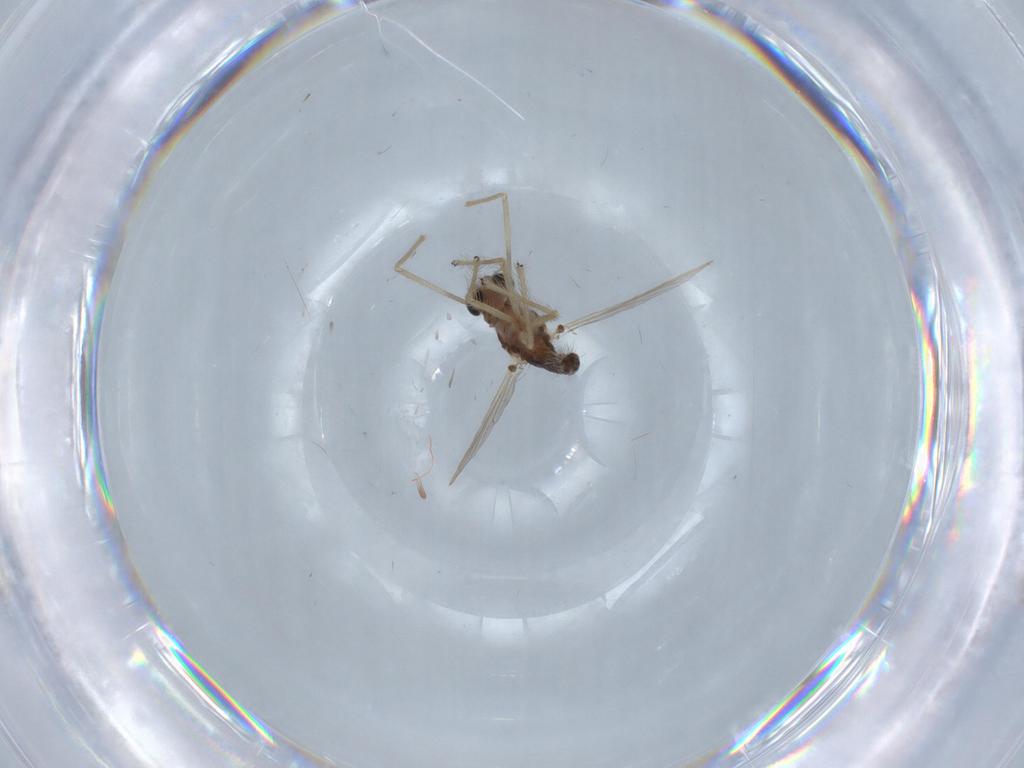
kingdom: Animalia
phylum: Arthropoda
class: Insecta
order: Diptera
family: Chironomidae
